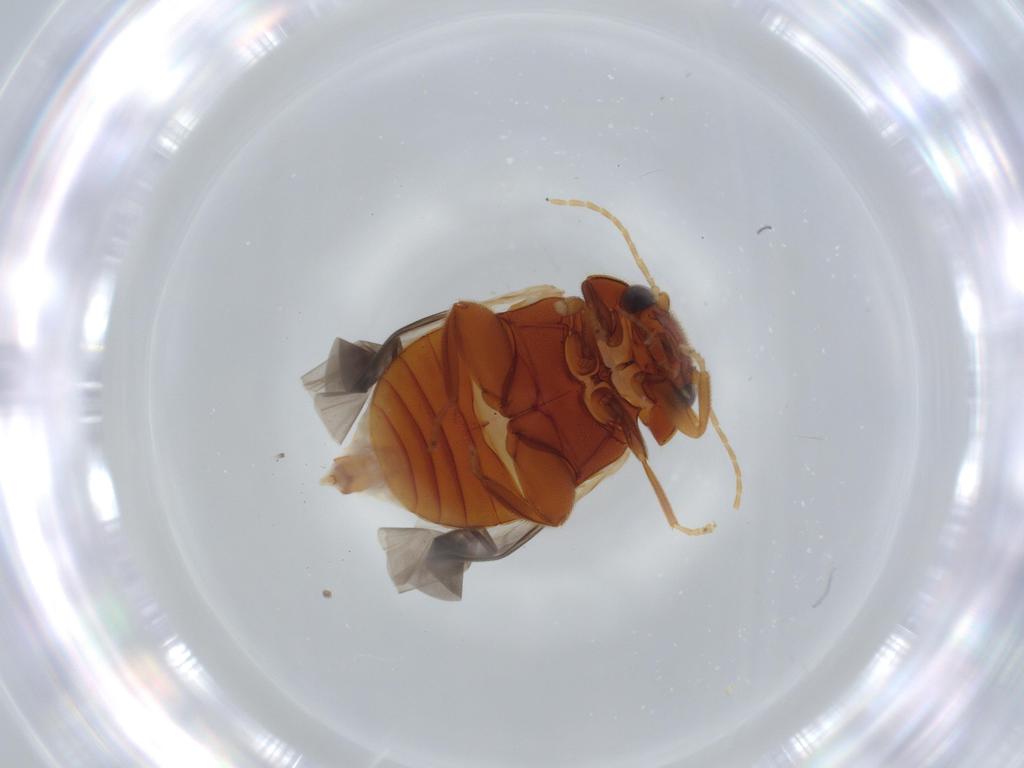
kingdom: Animalia
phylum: Arthropoda
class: Insecta
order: Coleoptera
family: Scirtidae
